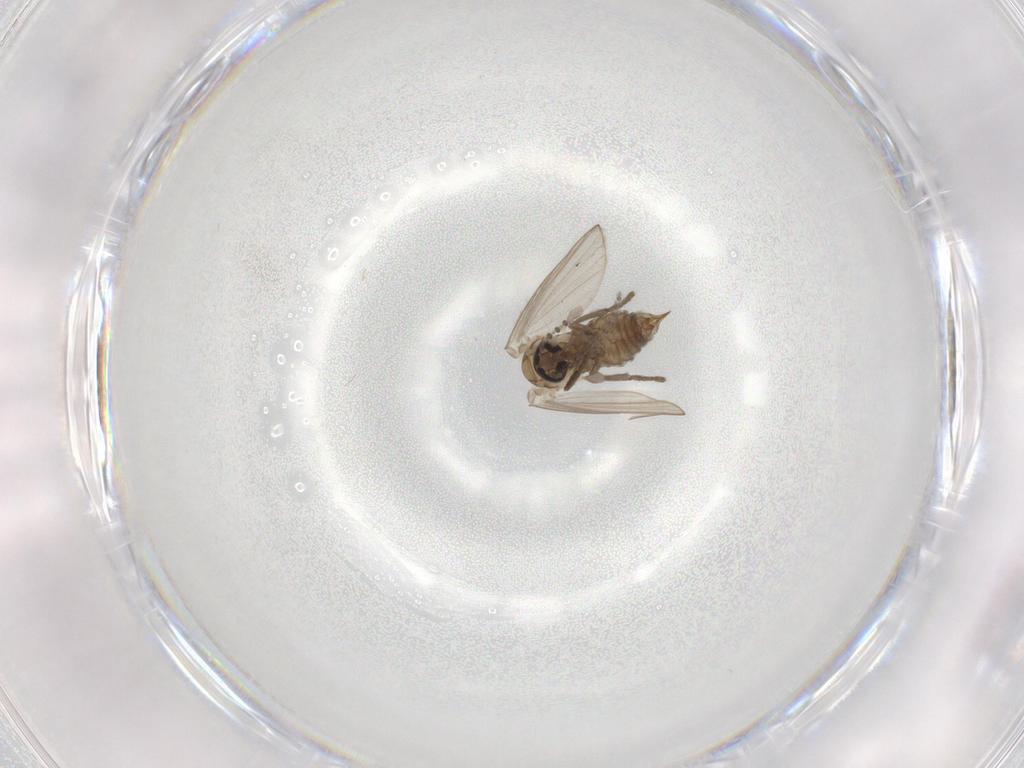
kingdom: Animalia
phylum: Arthropoda
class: Insecta
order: Diptera
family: Psychodidae
